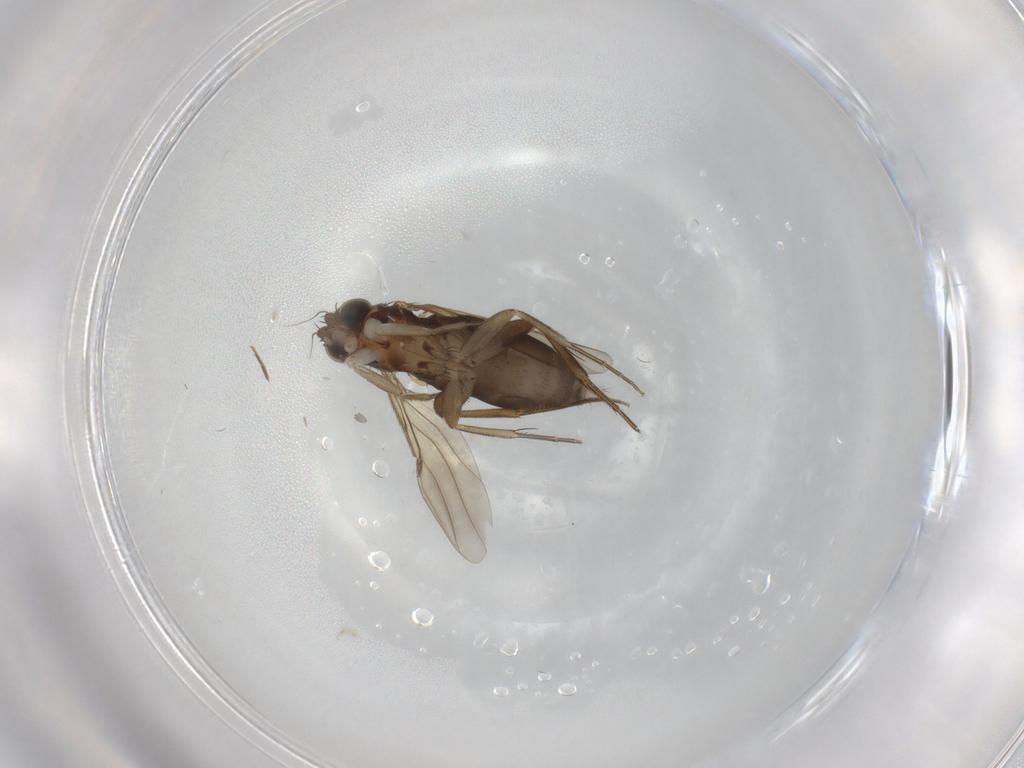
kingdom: Animalia
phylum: Arthropoda
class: Insecta
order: Diptera
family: Phoridae
